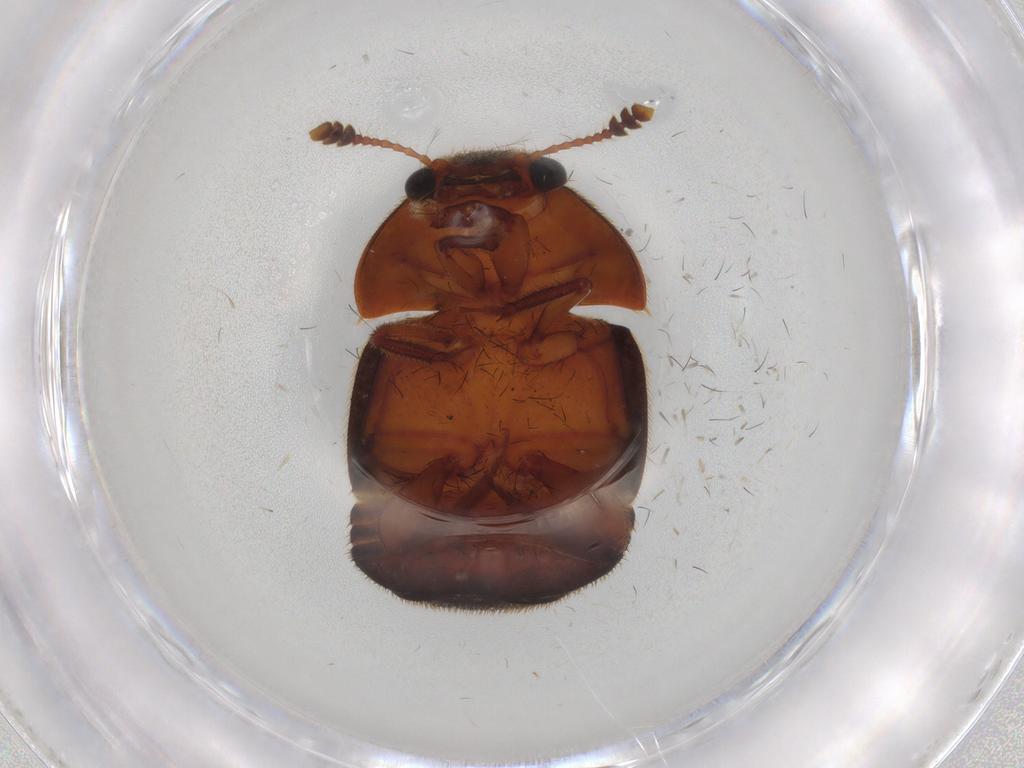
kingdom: Animalia
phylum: Arthropoda
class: Insecta
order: Coleoptera
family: Nitidulidae
